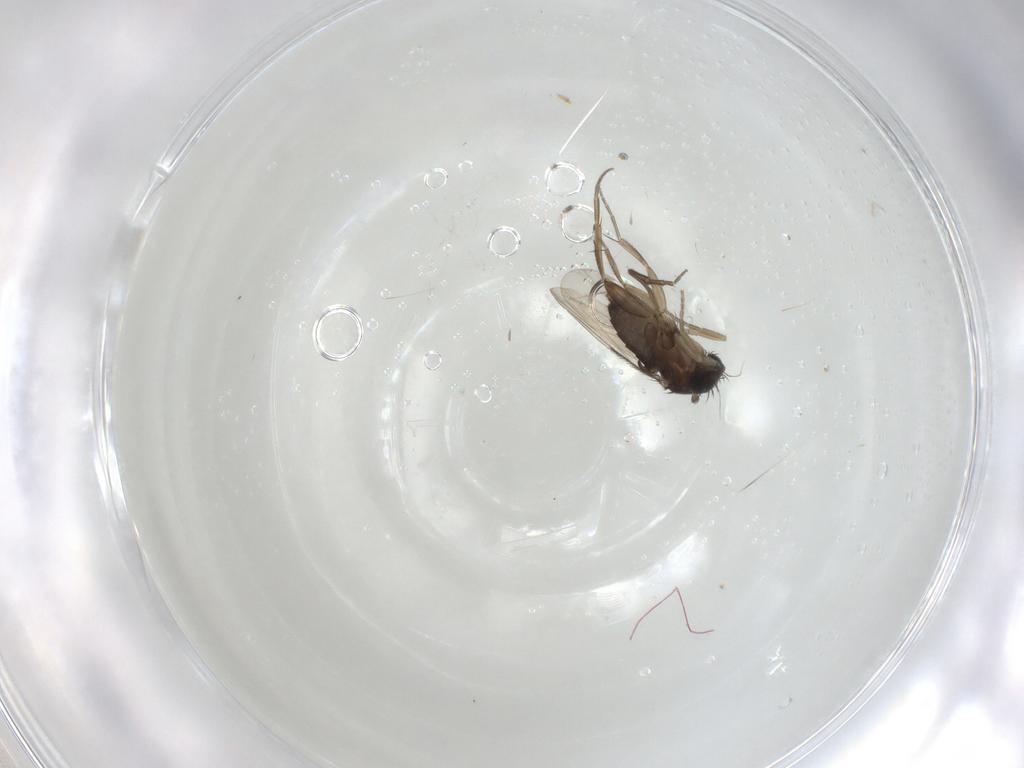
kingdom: Animalia
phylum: Arthropoda
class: Insecta
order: Diptera
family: Phoridae
